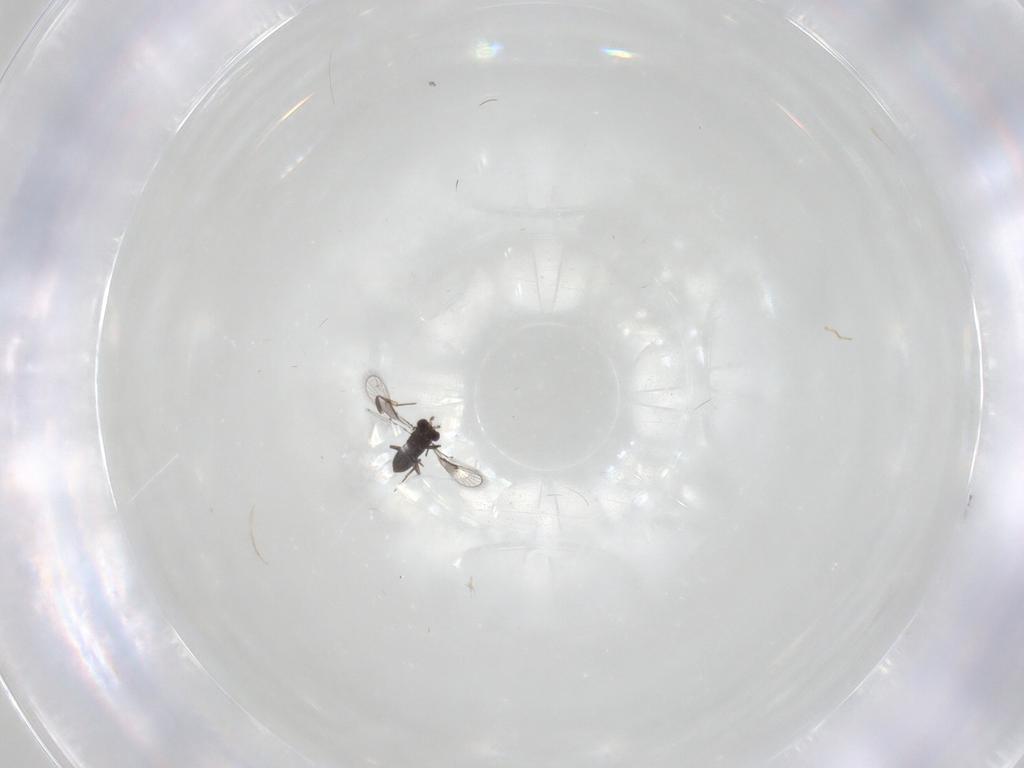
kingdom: Animalia
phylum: Arthropoda
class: Insecta
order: Hymenoptera
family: Trichogrammatidae
